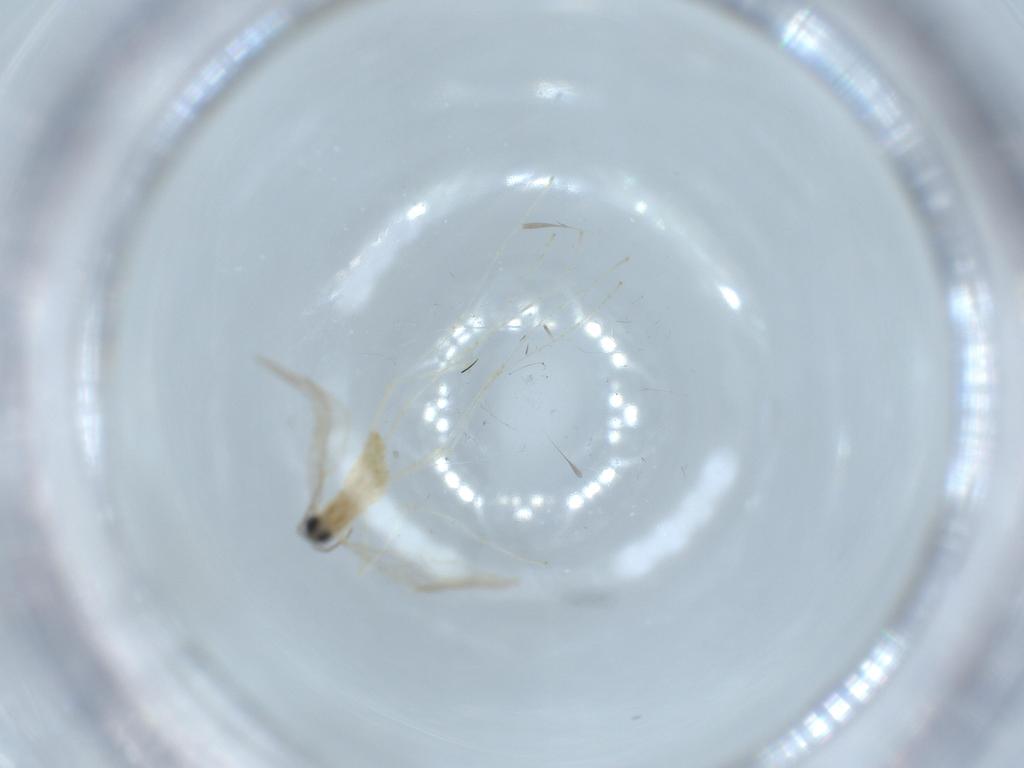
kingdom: Animalia
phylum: Arthropoda
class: Insecta
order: Diptera
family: Cecidomyiidae
